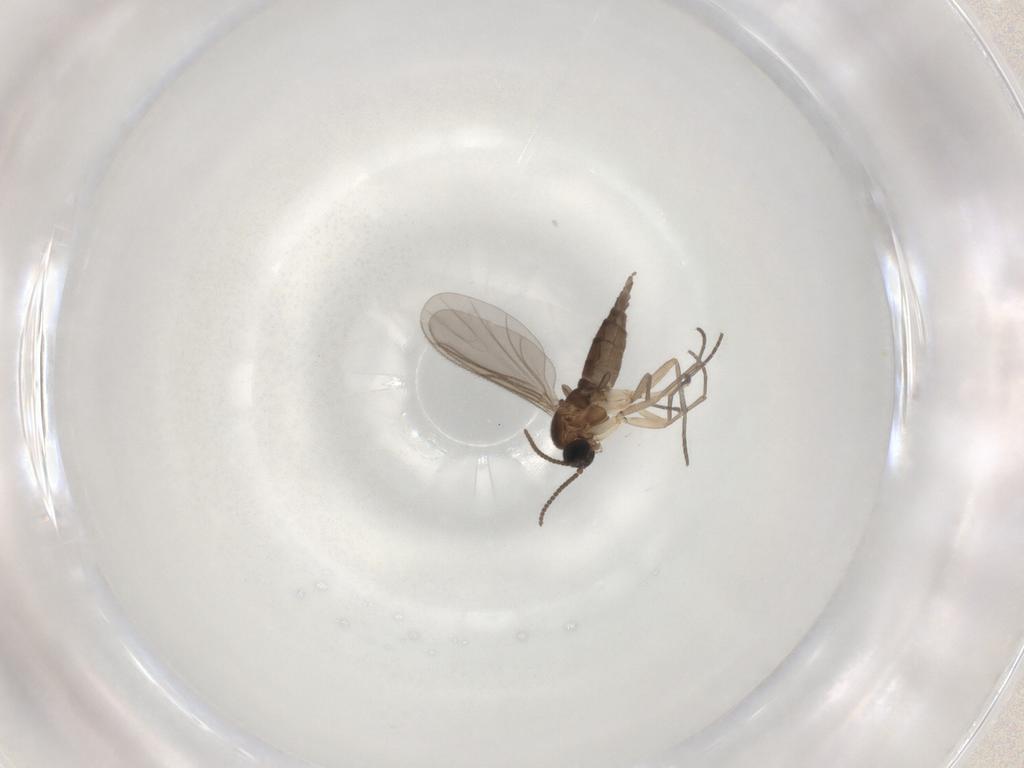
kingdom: Animalia
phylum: Arthropoda
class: Insecta
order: Diptera
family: Sciaridae
